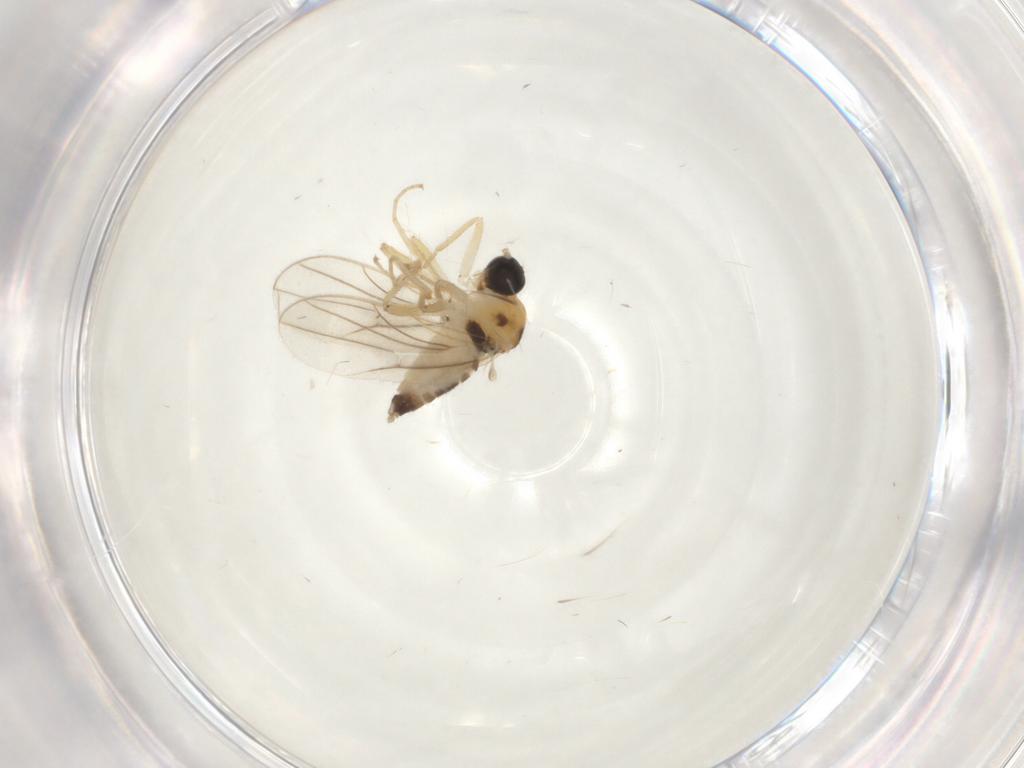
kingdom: Animalia
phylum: Arthropoda
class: Insecta
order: Diptera
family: Hybotidae
